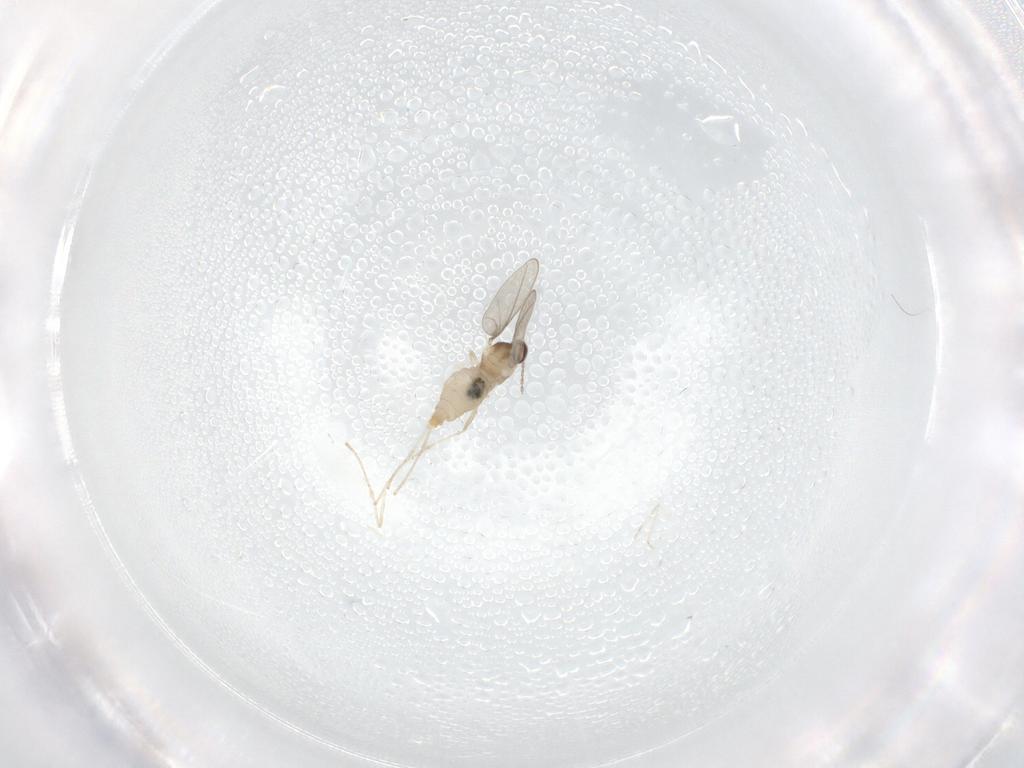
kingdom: Animalia
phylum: Arthropoda
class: Insecta
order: Diptera
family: Cecidomyiidae
